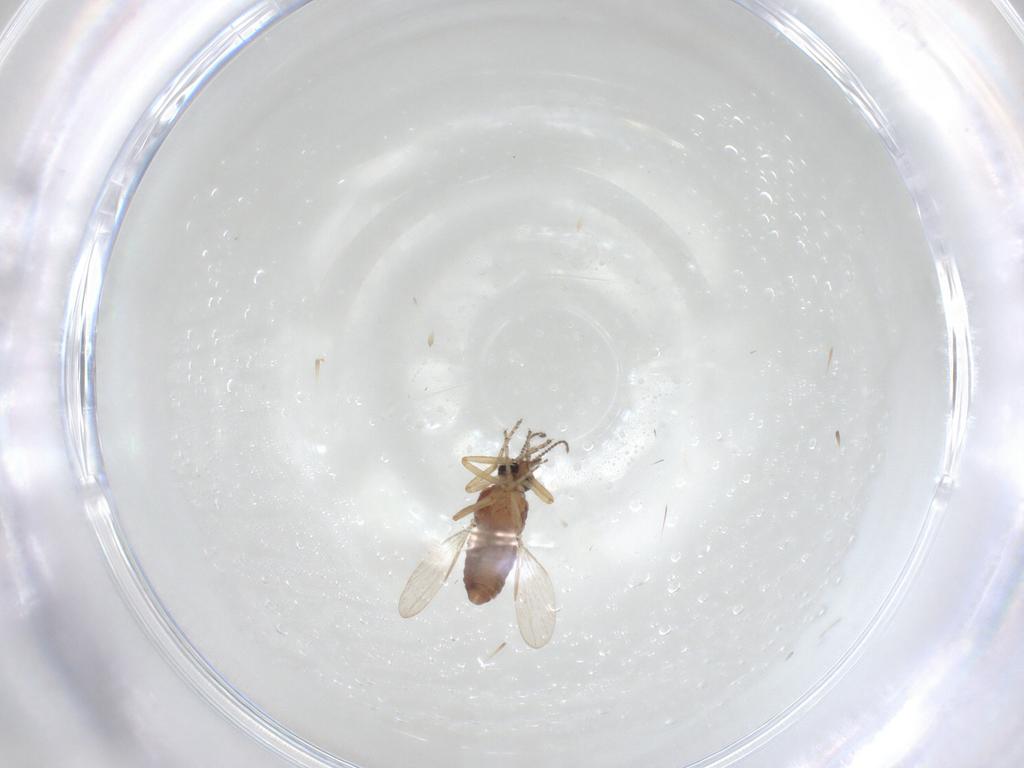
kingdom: Animalia
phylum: Arthropoda
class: Insecta
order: Diptera
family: Ceratopogonidae
